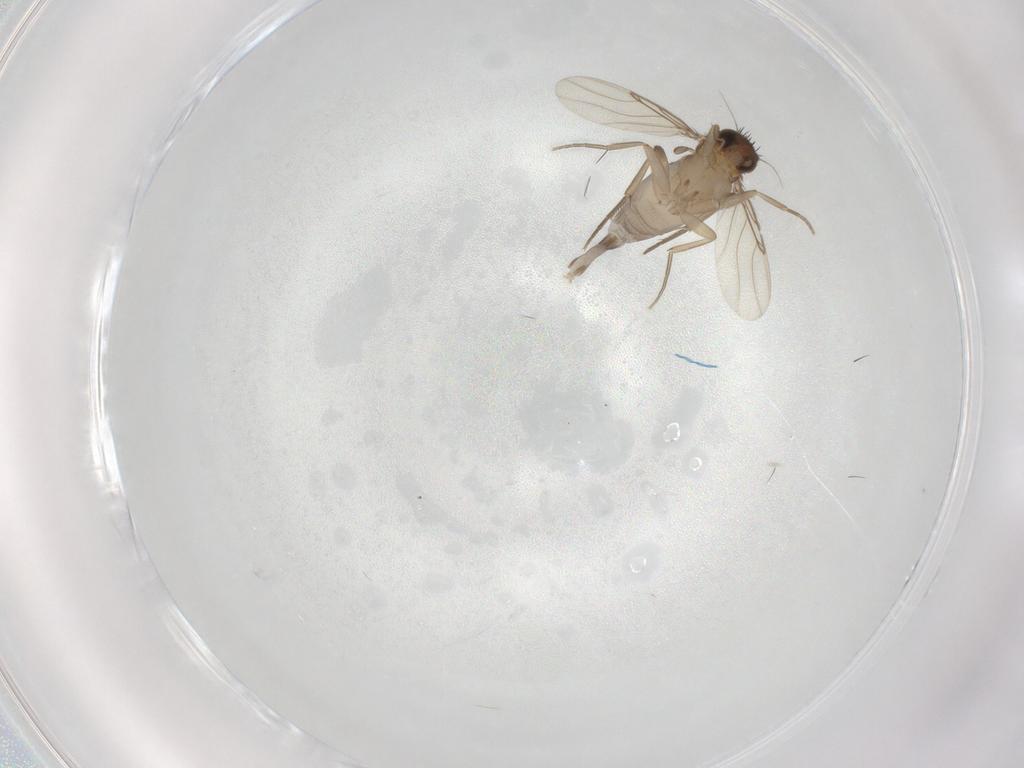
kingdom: Animalia
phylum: Arthropoda
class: Insecta
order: Diptera
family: Phoridae
